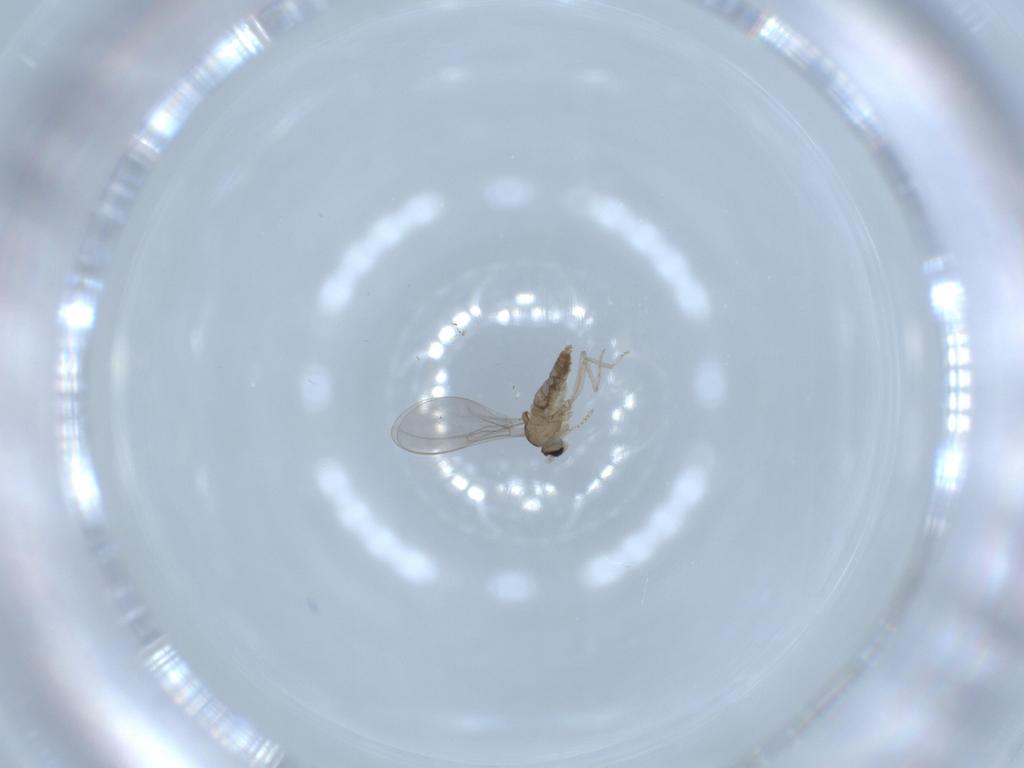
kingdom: Animalia
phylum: Arthropoda
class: Insecta
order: Diptera
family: Cecidomyiidae
